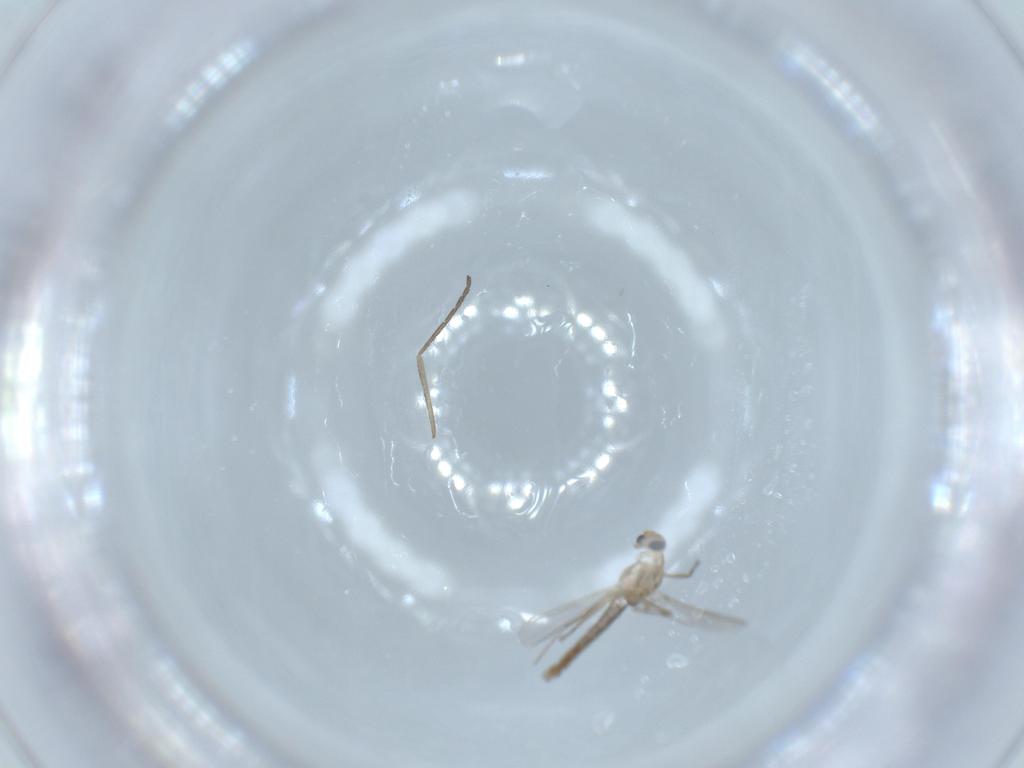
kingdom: Animalia
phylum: Arthropoda
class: Insecta
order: Diptera
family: Chironomidae
